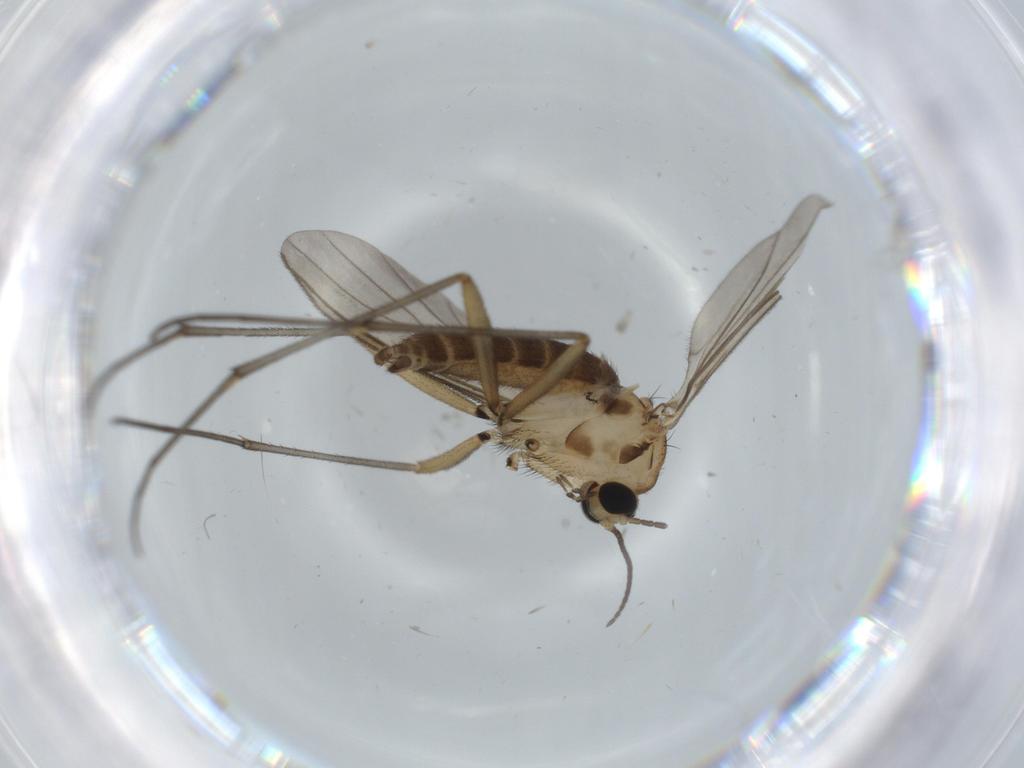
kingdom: Animalia
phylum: Arthropoda
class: Insecta
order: Diptera
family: Sciaridae
